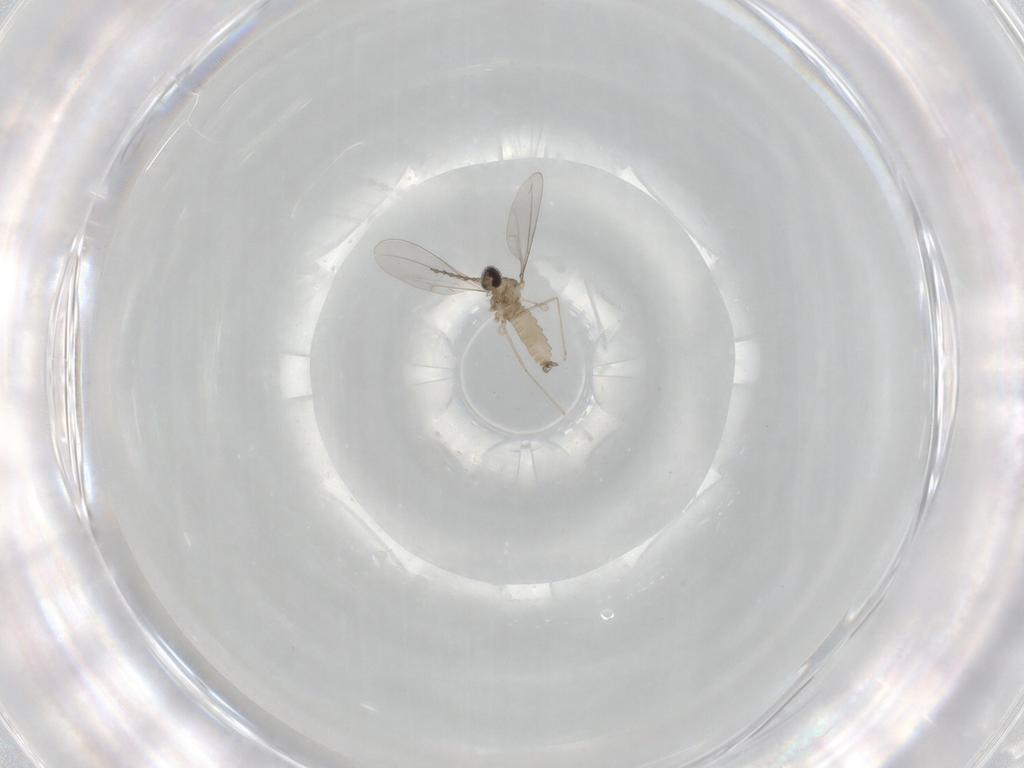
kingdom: Animalia
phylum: Arthropoda
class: Insecta
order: Diptera
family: Cecidomyiidae
